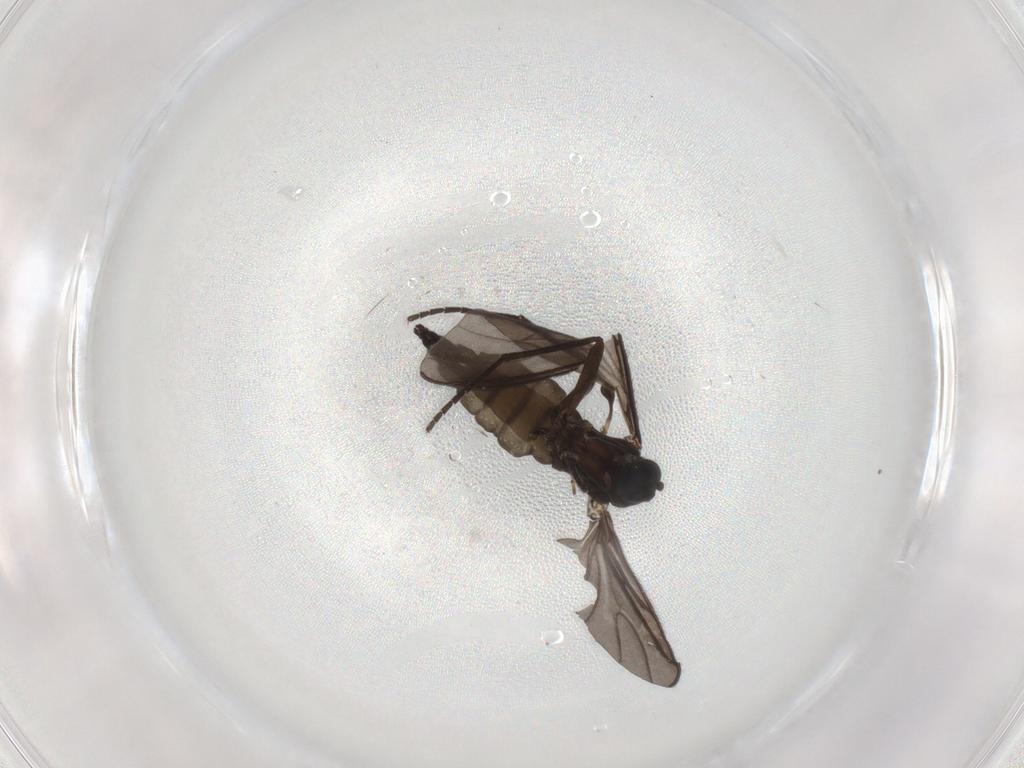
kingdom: Animalia
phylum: Arthropoda
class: Insecta
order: Diptera
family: Sciaridae
